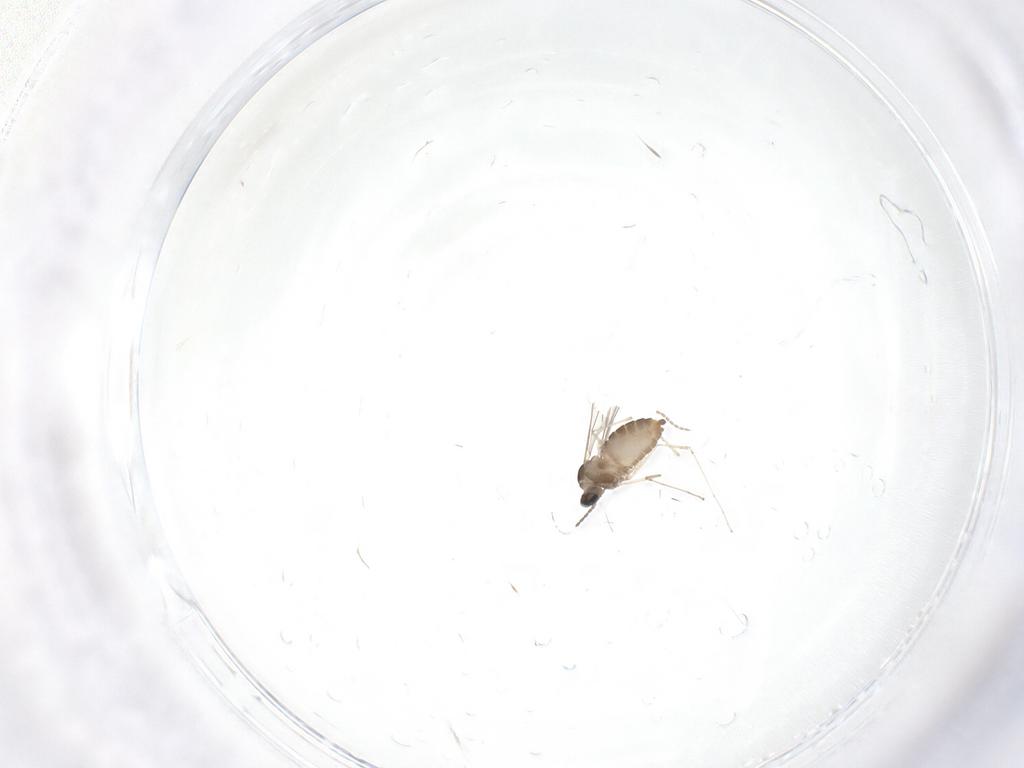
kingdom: Animalia
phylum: Arthropoda
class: Insecta
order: Diptera
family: Cecidomyiidae
